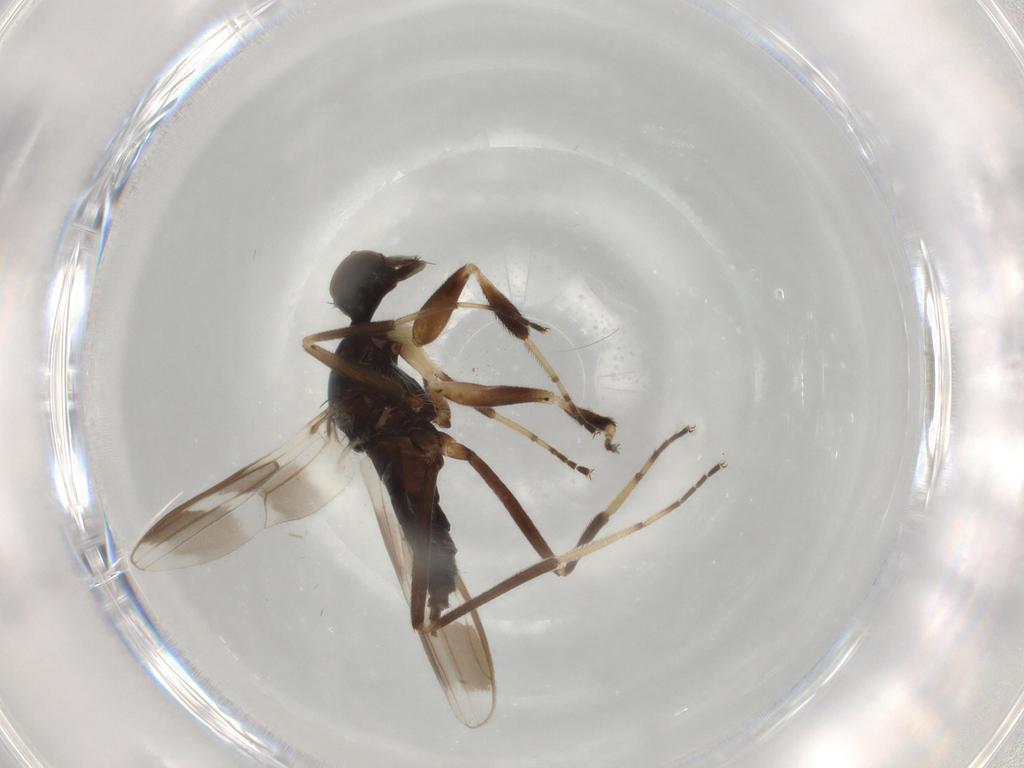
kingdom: Animalia
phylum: Arthropoda
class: Insecta
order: Diptera
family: Hybotidae
